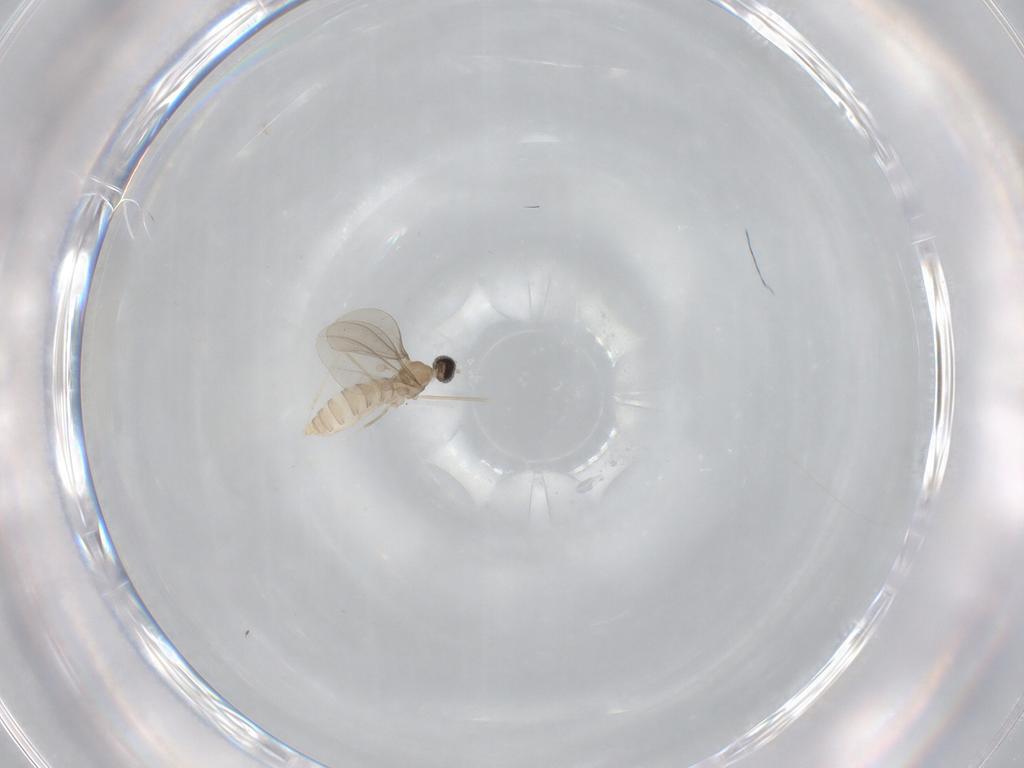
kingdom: Animalia
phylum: Arthropoda
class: Insecta
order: Diptera
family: Cecidomyiidae
